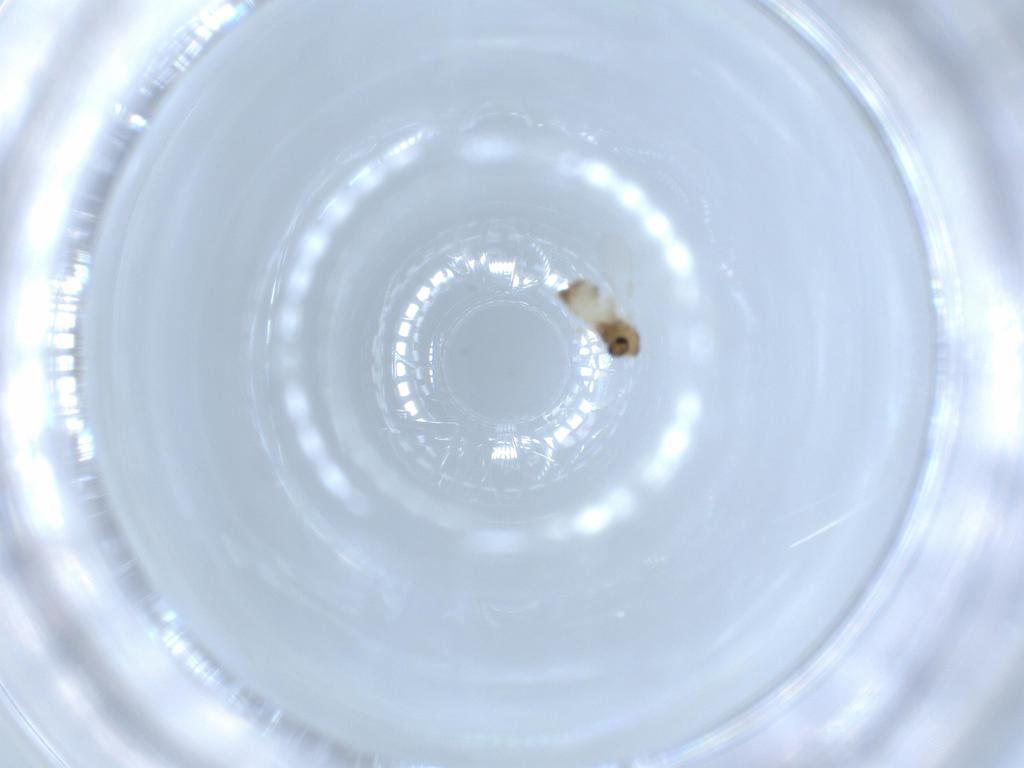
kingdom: Animalia
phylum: Arthropoda
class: Insecta
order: Diptera
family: Chironomidae
